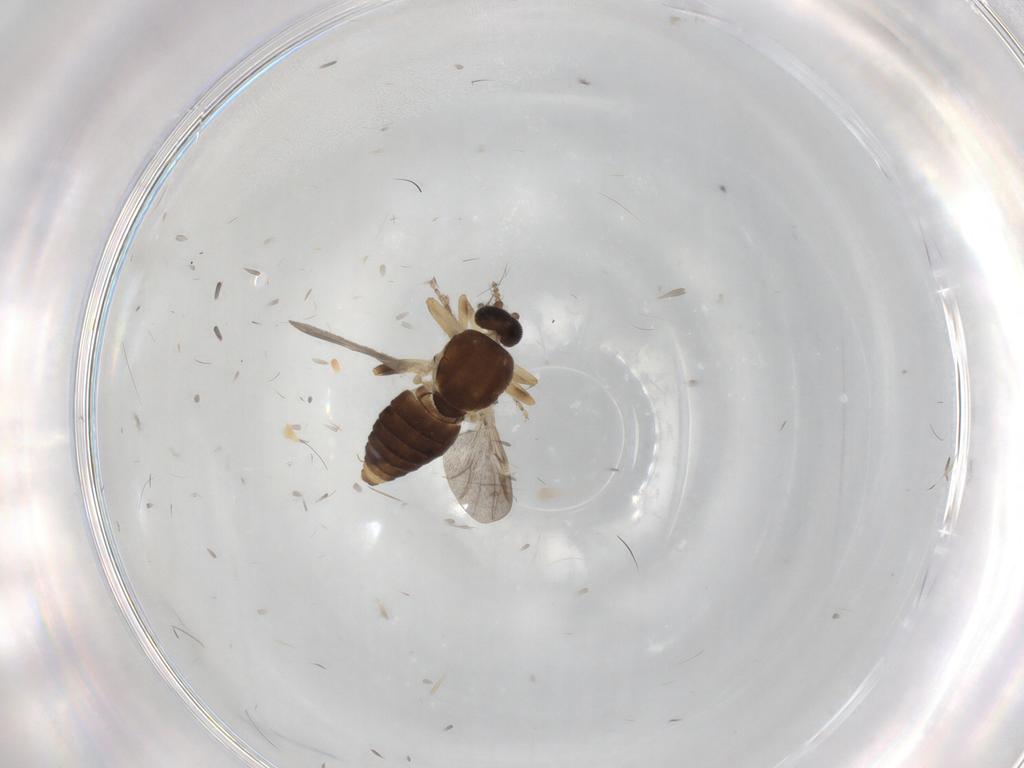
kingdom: Animalia
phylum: Arthropoda
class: Insecta
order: Diptera
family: Ceratopogonidae
